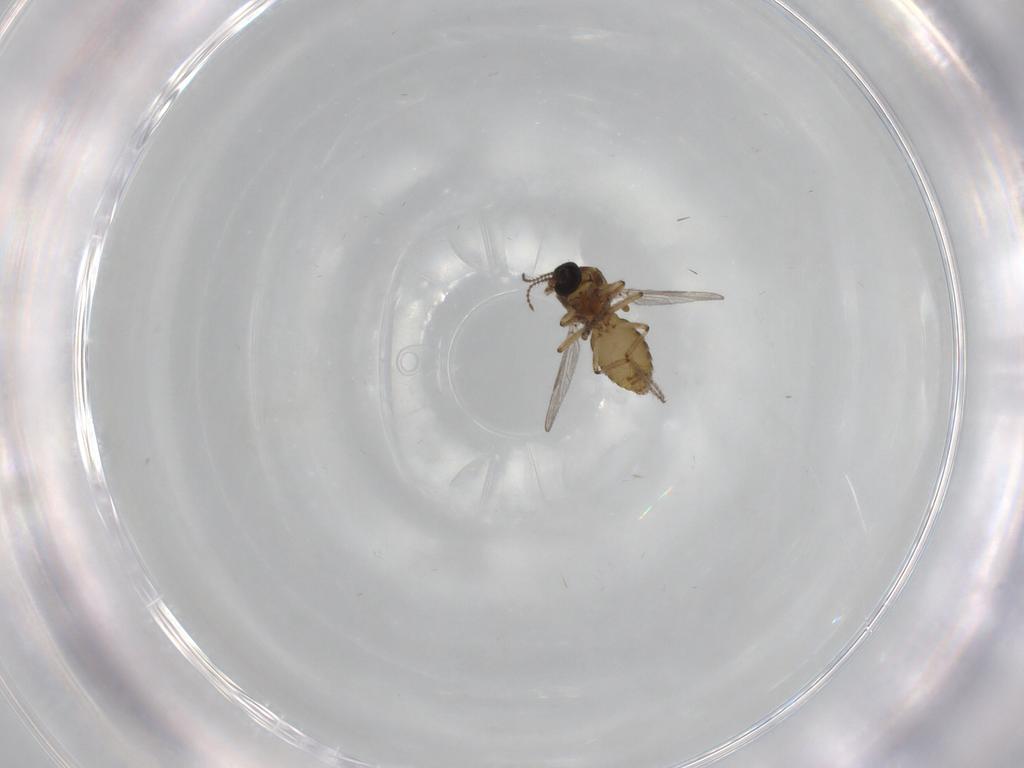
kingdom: Animalia
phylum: Arthropoda
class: Insecta
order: Diptera
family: Ceratopogonidae
